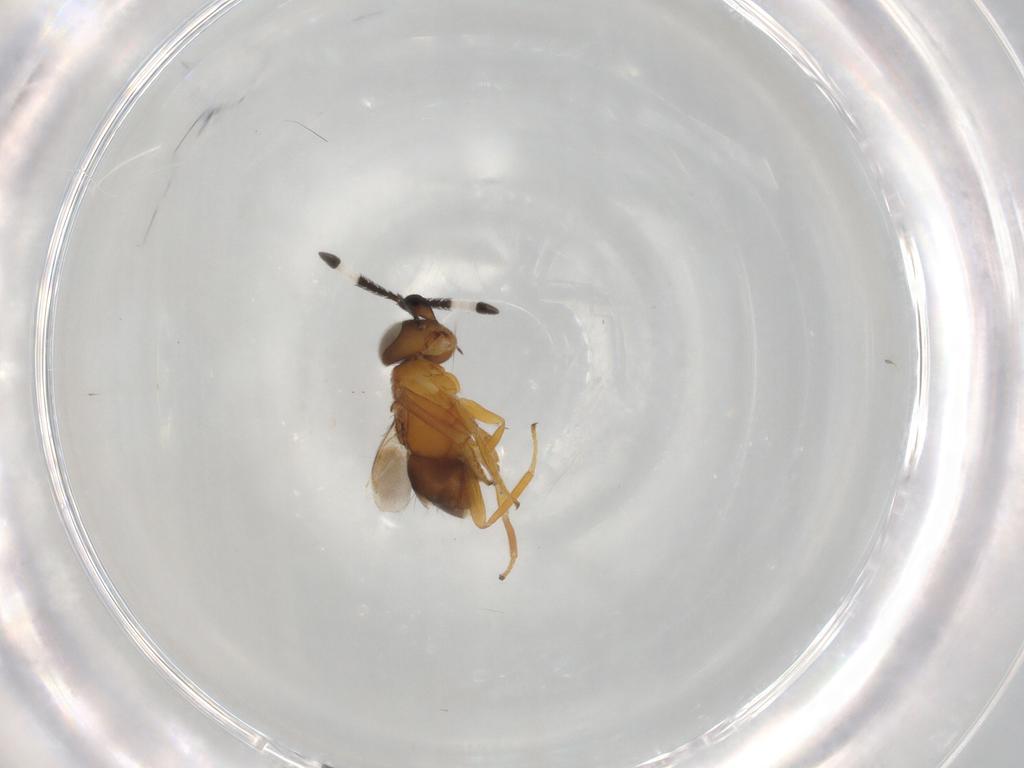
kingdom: Animalia
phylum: Arthropoda
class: Insecta
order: Hymenoptera
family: Encyrtidae
